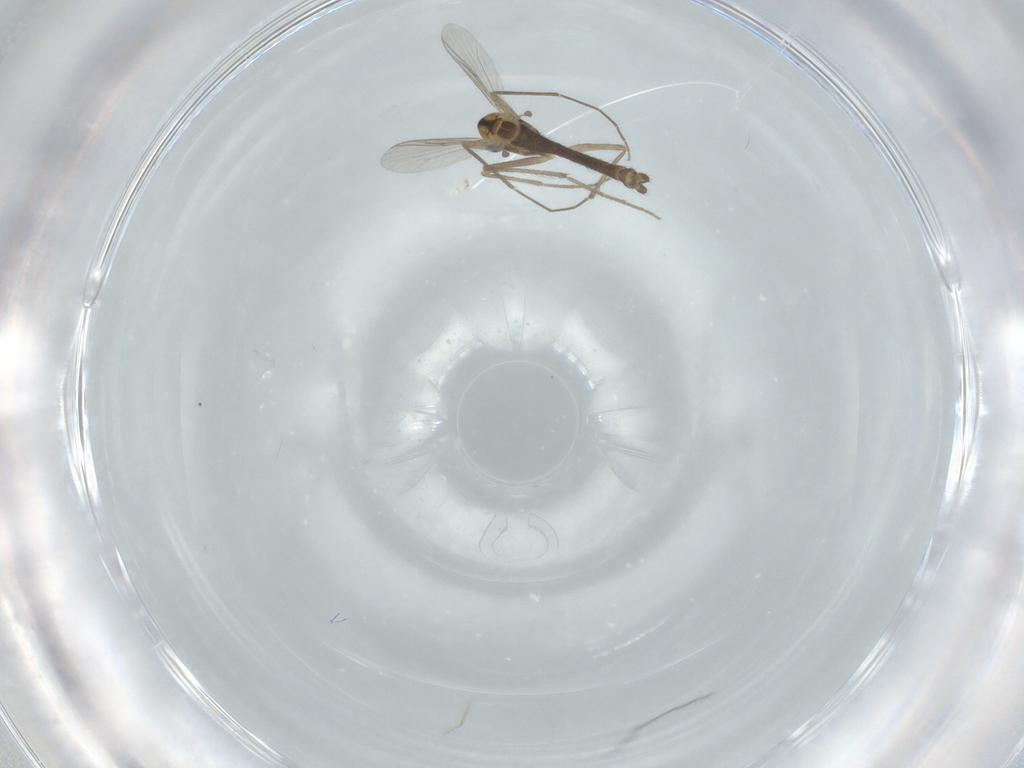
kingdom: Animalia
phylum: Arthropoda
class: Insecta
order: Diptera
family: Chironomidae
